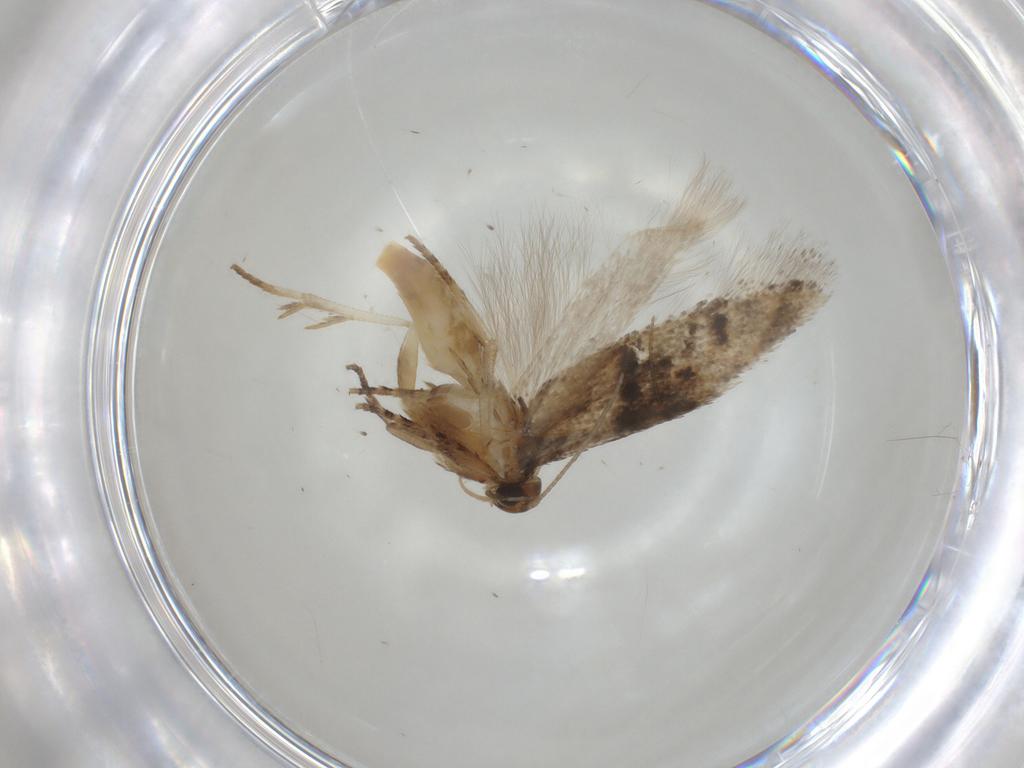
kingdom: Animalia
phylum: Arthropoda
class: Insecta
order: Lepidoptera
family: Gelechiidae
